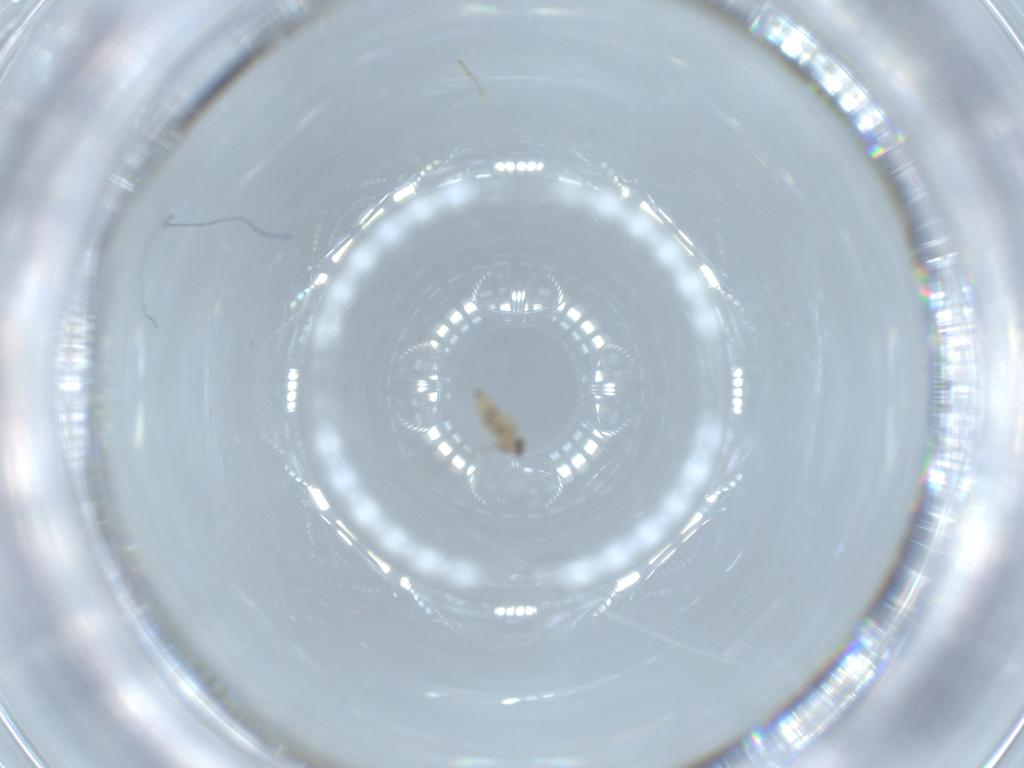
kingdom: Animalia
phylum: Arthropoda
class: Insecta
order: Diptera
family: Cecidomyiidae
